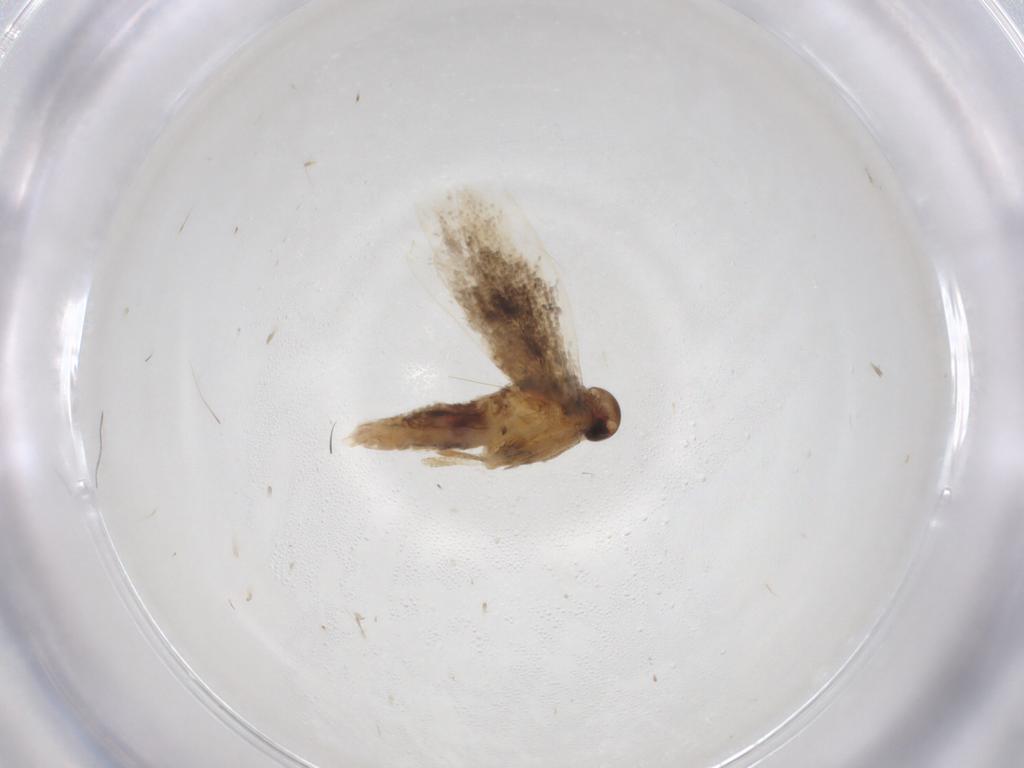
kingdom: Animalia
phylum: Arthropoda
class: Insecta
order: Lepidoptera
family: Gelechiidae
